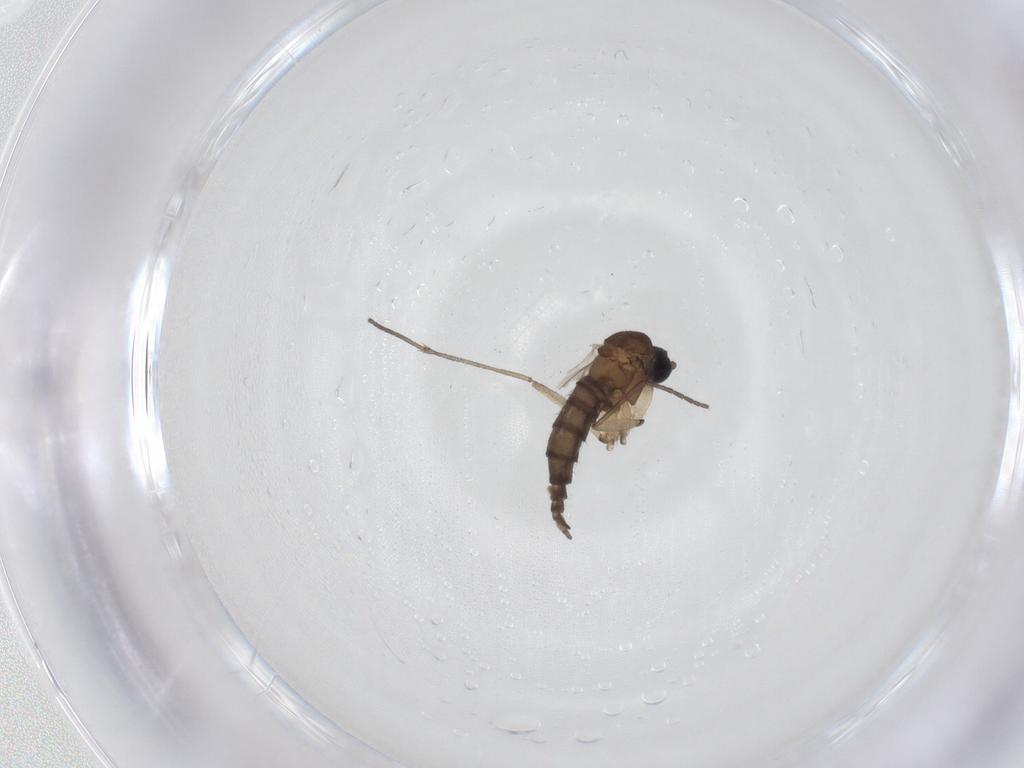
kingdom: Animalia
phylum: Arthropoda
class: Insecta
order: Diptera
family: Sciaridae
